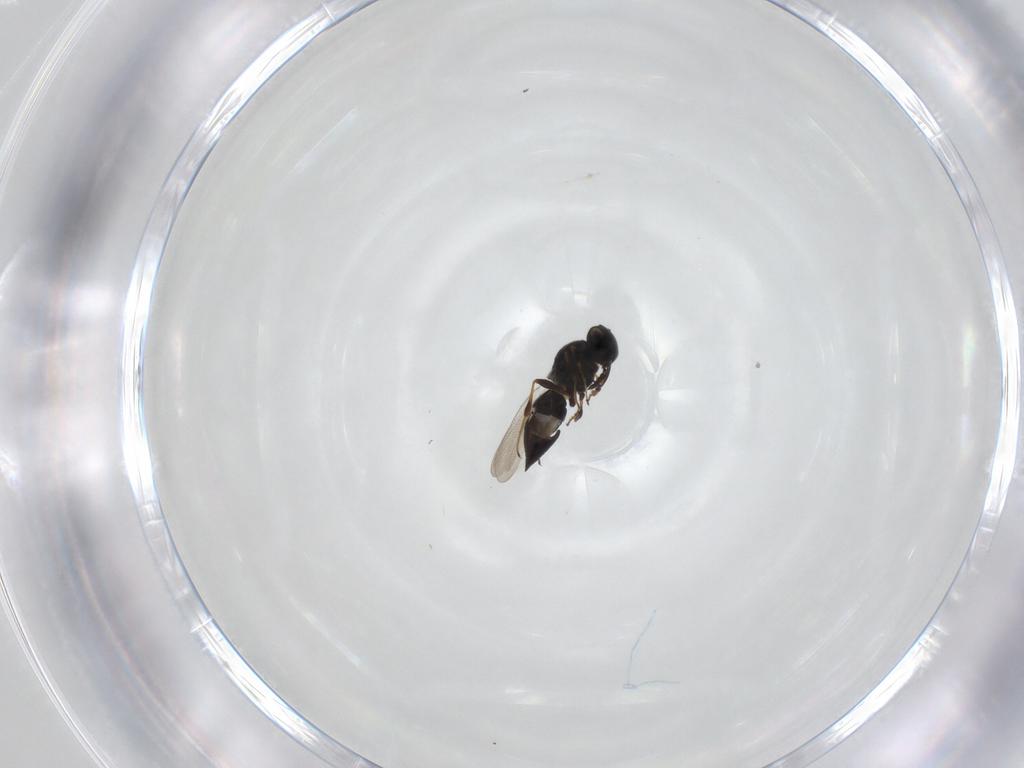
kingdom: Animalia
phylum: Arthropoda
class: Insecta
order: Hymenoptera
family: Platygastridae
